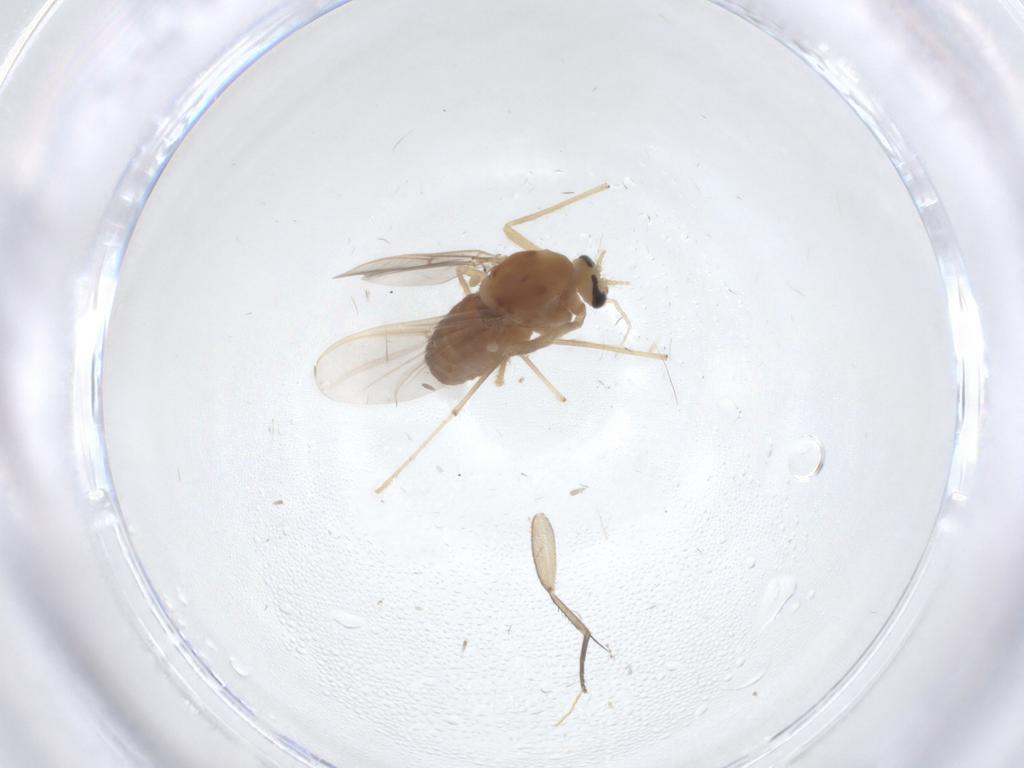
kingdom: Animalia
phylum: Arthropoda
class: Insecta
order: Diptera
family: Chironomidae
